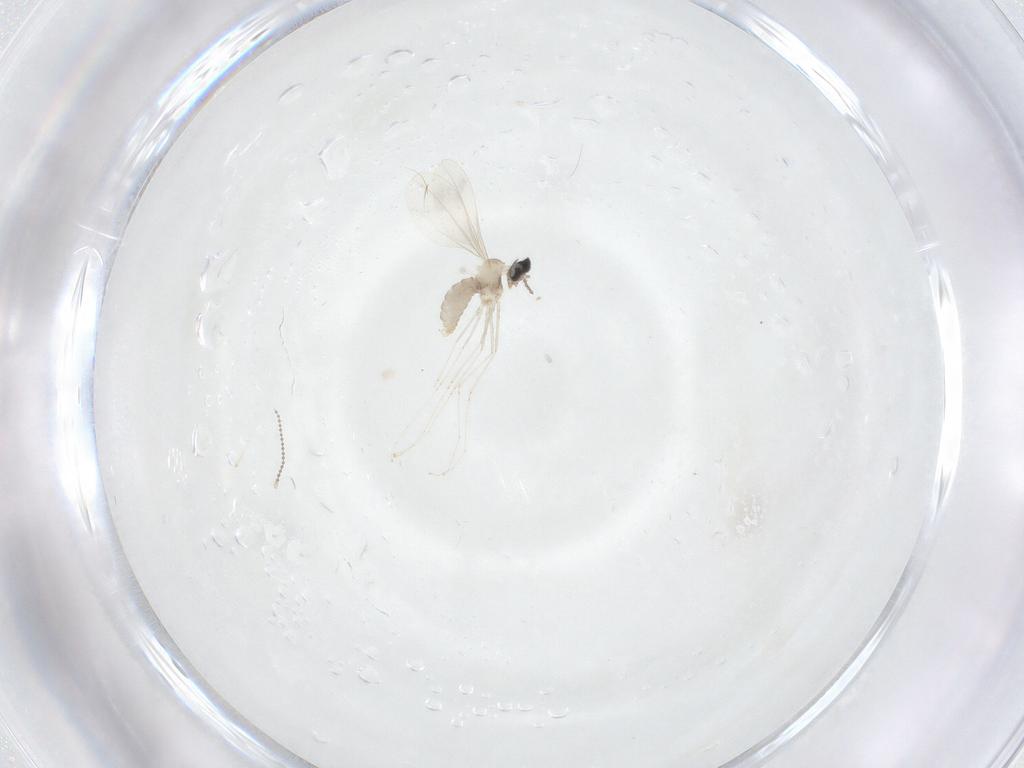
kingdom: Animalia
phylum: Arthropoda
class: Insecta
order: Diptera
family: Cecidomyiidae
